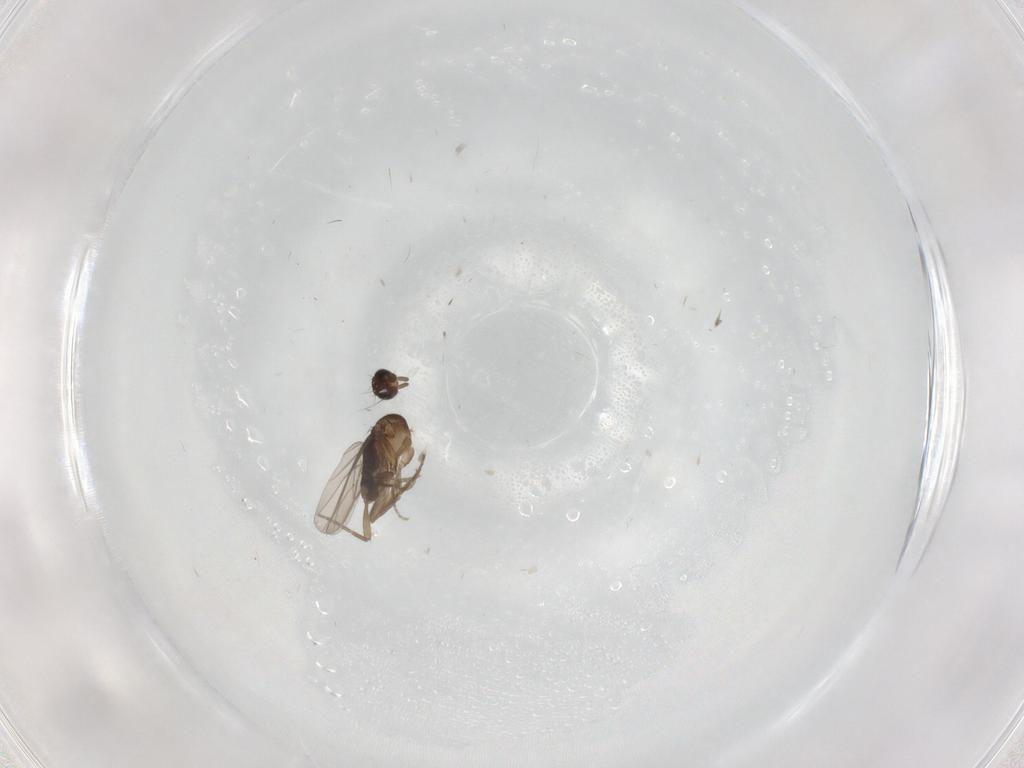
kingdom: Animalia
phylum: Arthropoda
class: Insecta
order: Diptera
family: Limoniidae
